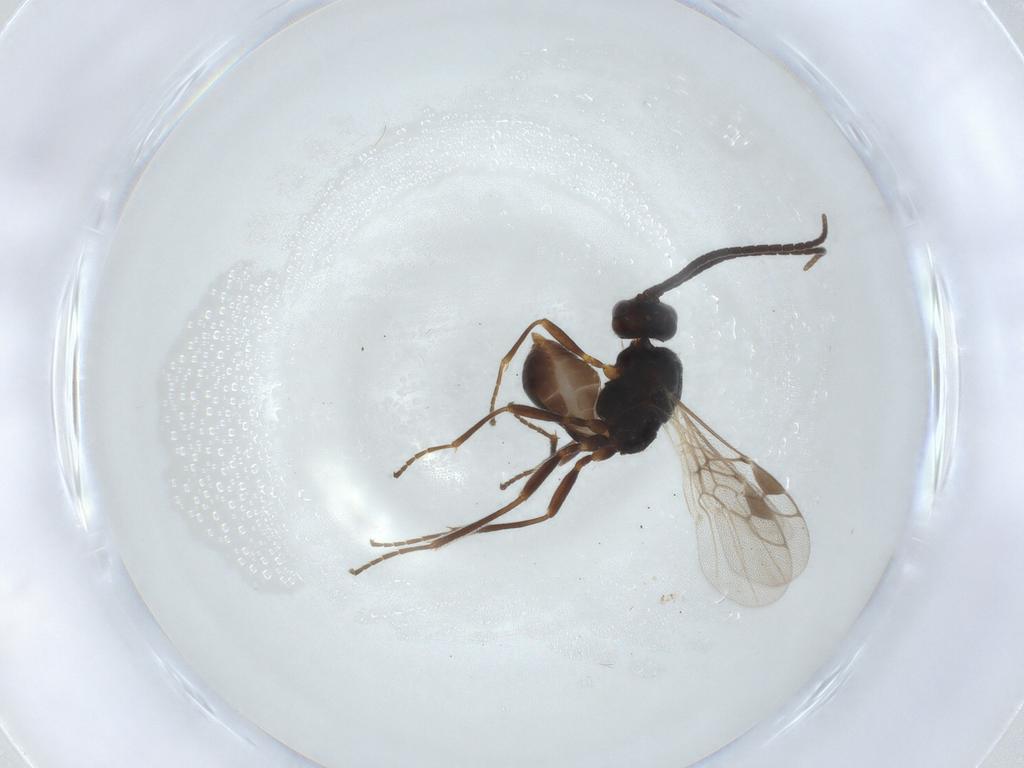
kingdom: Animalia
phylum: Arthropoda
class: Insecta
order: Hymenoptera
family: Braconidae
